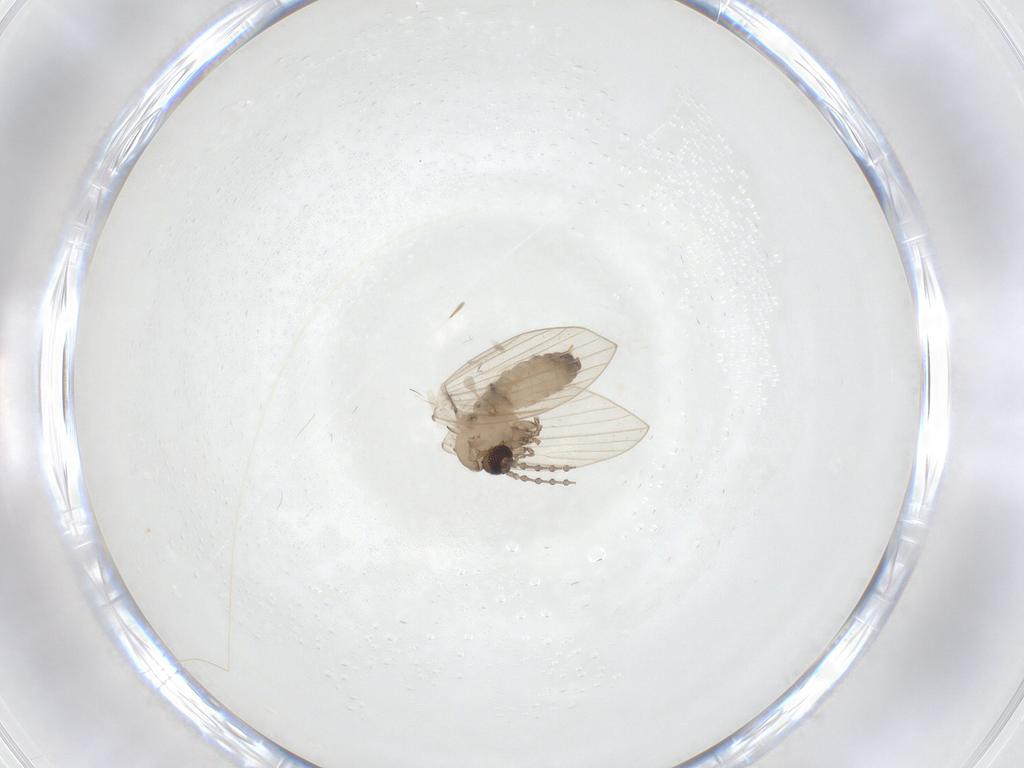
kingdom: Animalia
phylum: Arthropoda
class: Insecta
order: Diptera
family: Psychodidae
